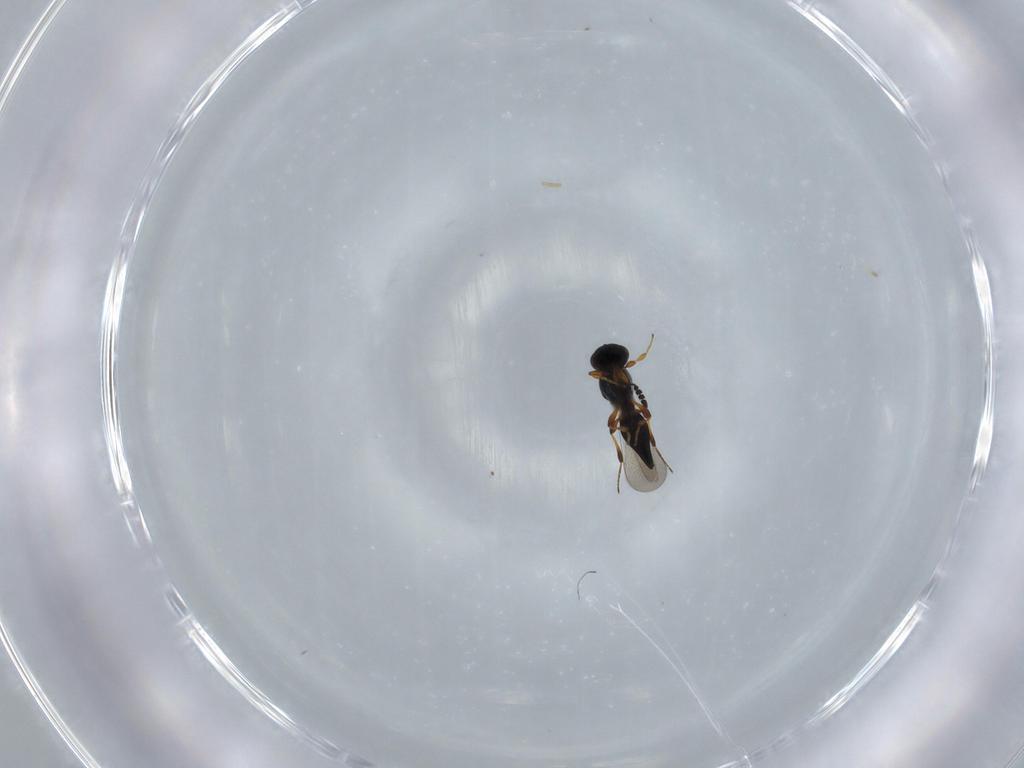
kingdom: Animalia
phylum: Arthropoda
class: Insecta
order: Hymenoptera
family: Platygastridae
